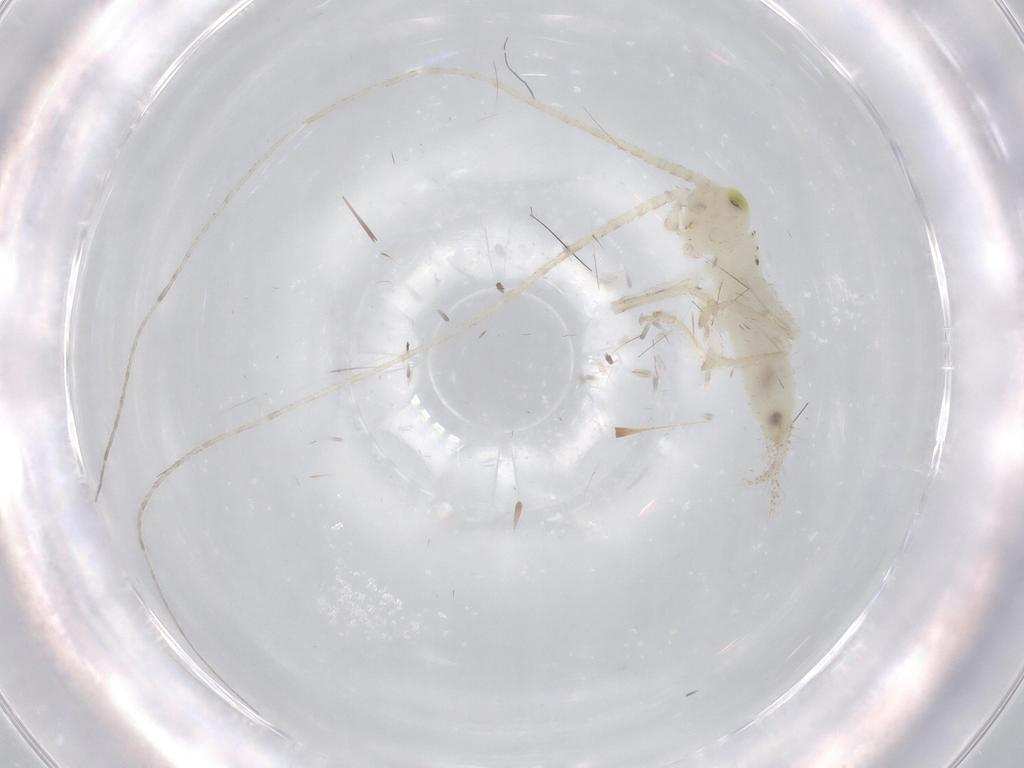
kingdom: Animalia
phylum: Arthropoda
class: Insecta
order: Orthoptera
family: Trigonidiidae
